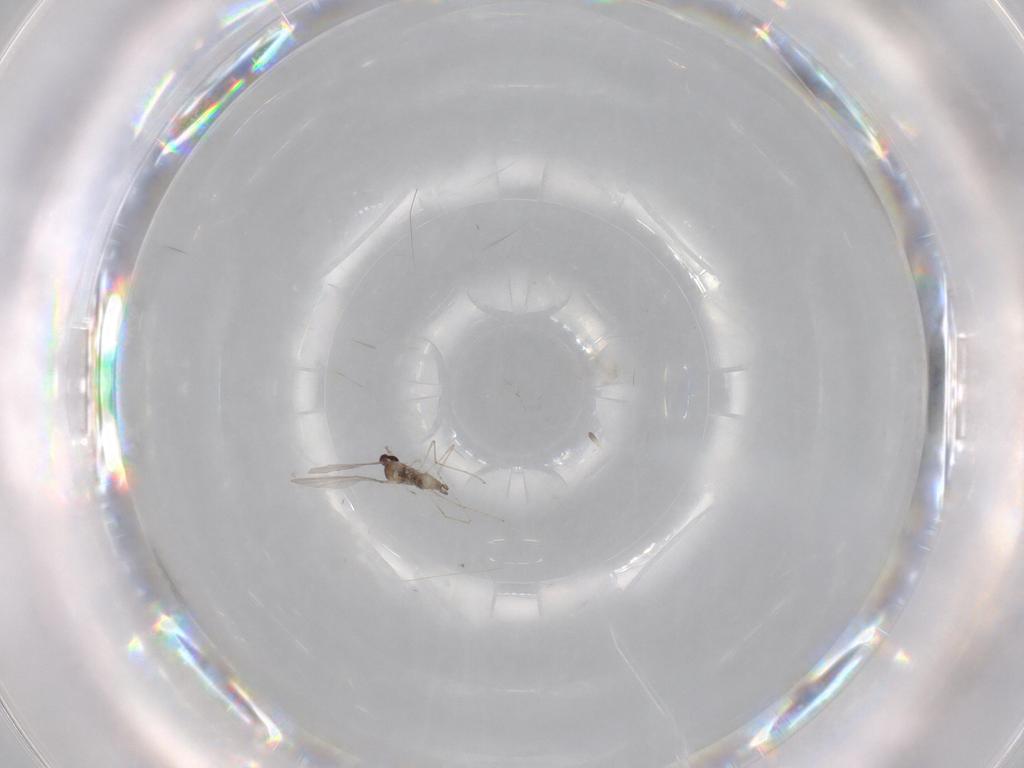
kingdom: Animalia
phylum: Arthropoda
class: Insecta
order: Diptera
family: Cecidomyiidae
